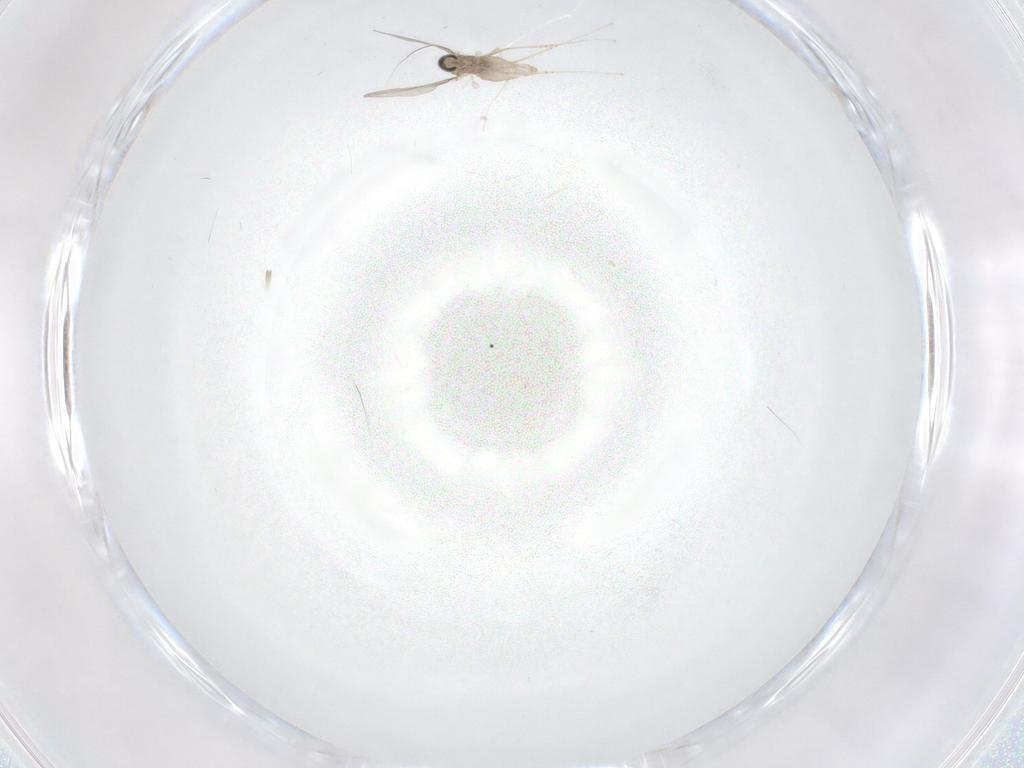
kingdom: Animalia
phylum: Arthropoda
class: Insecta
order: Diptera
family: Cecidomyiidae
